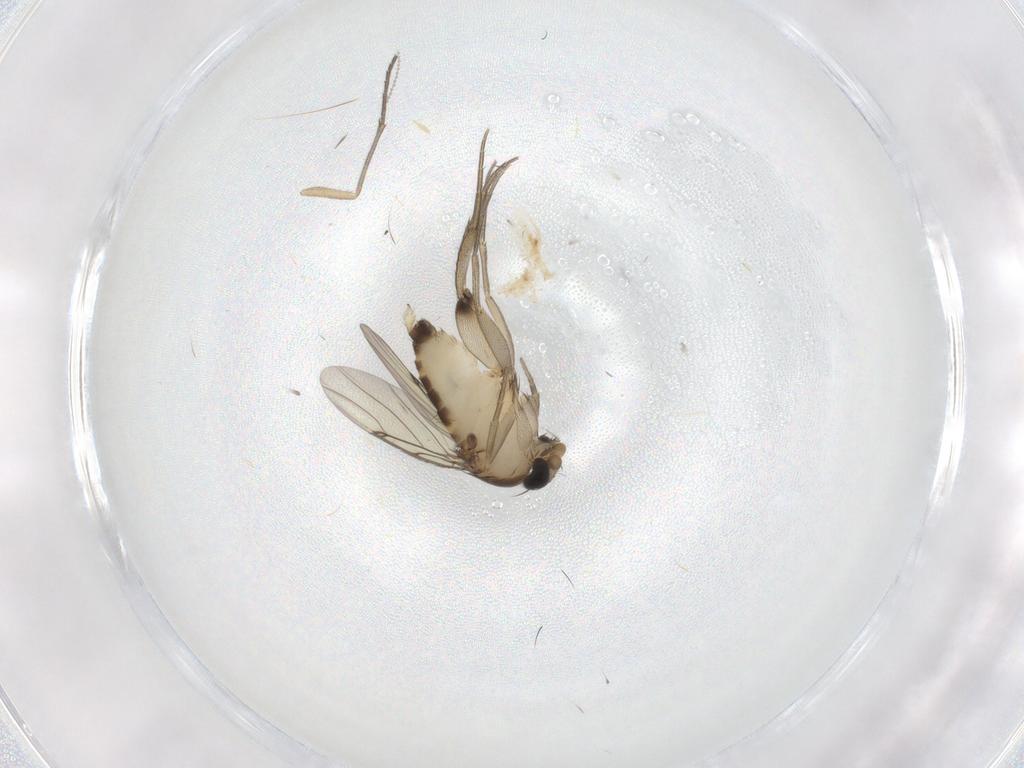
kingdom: Animalia
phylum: Arthropoda
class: Insecta
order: Diptera
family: Phoridae
